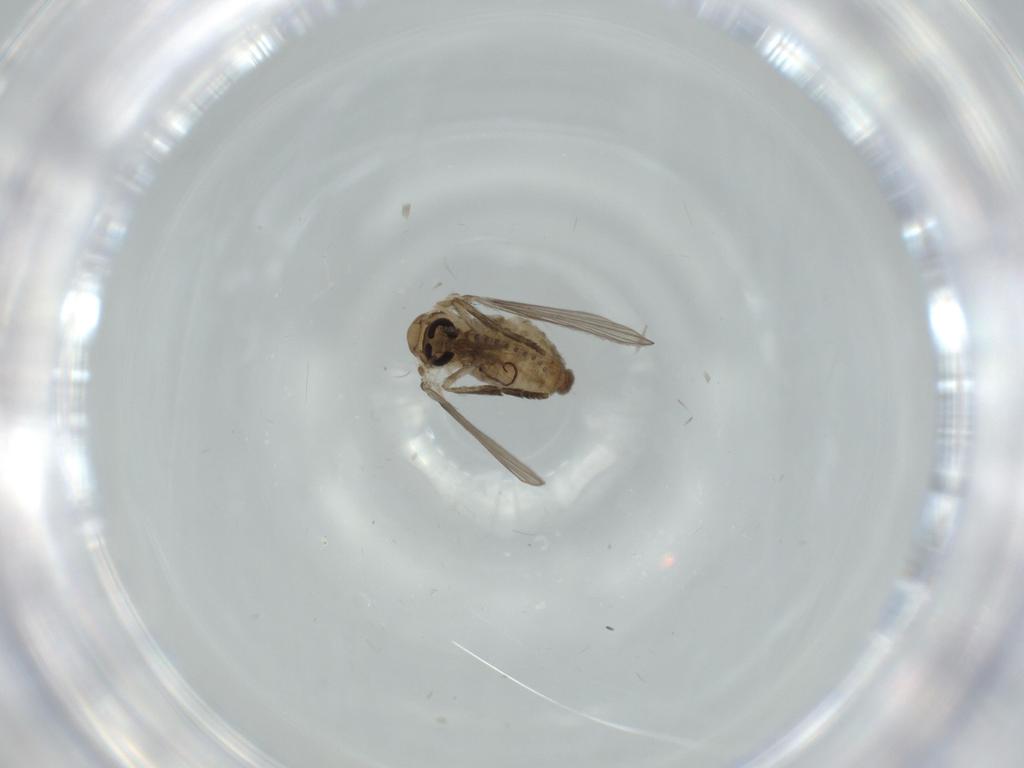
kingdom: Animalia
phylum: Arthropoda
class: Insecta
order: Diptera
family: Psychodidae
